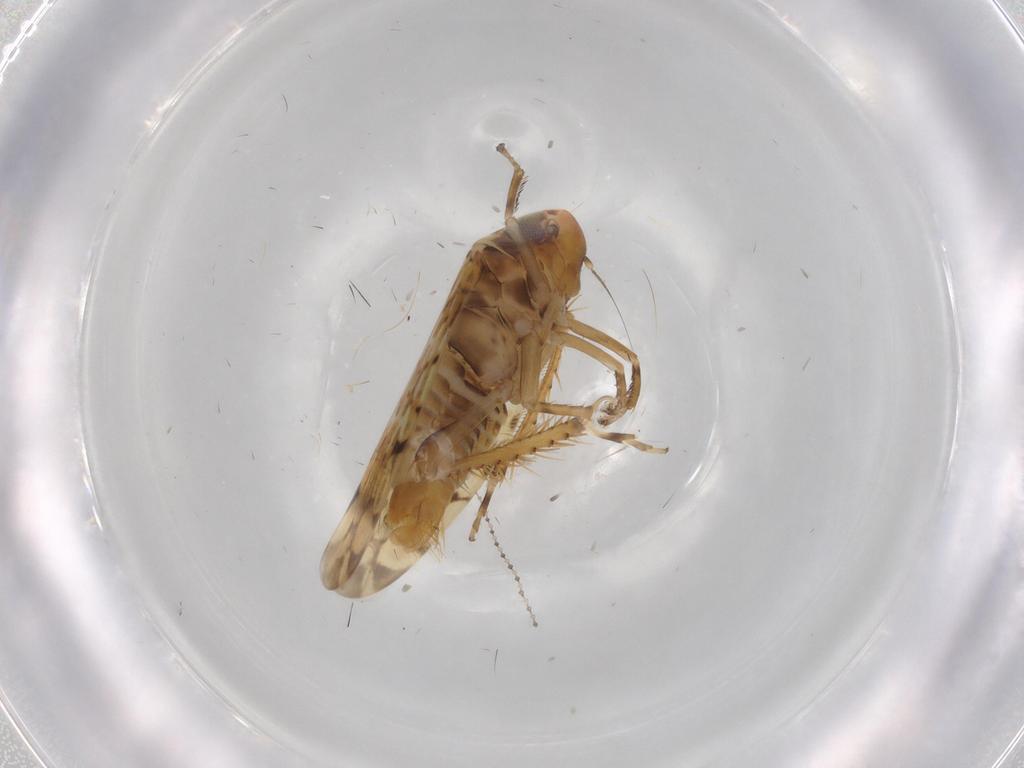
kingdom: Animalia
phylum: Arthropoda
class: Insecta
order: Hemiptera
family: Cicadellidae
